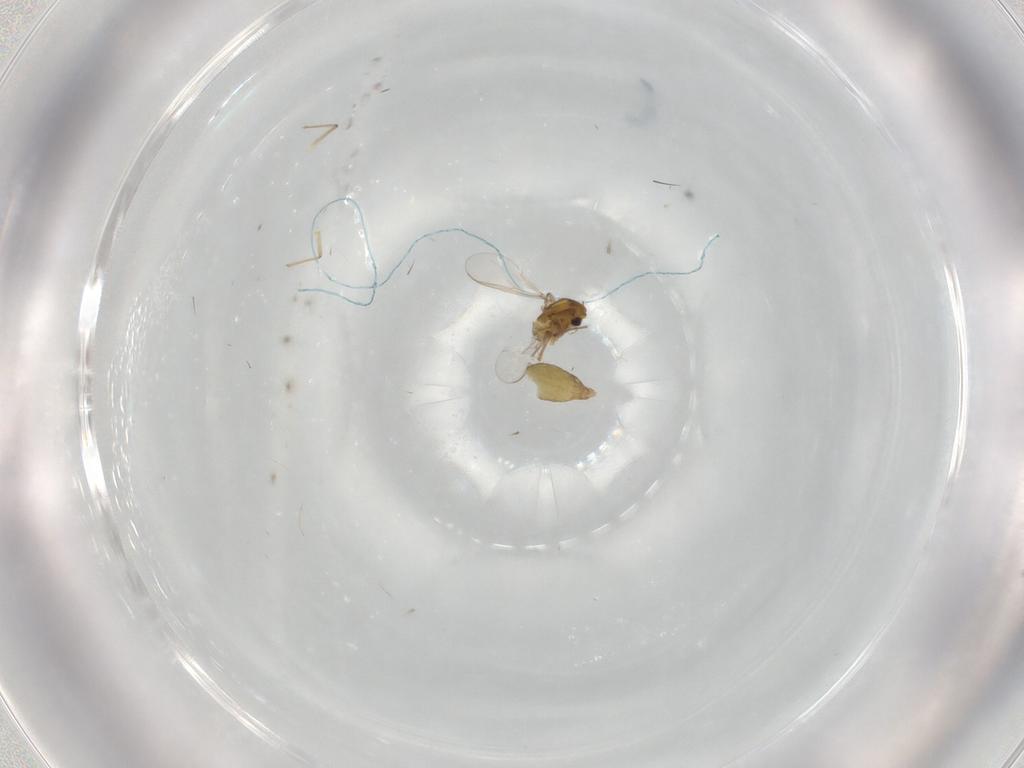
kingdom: Animalia
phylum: Arthropoda
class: Insecta
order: Diptera
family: Chironomidae
